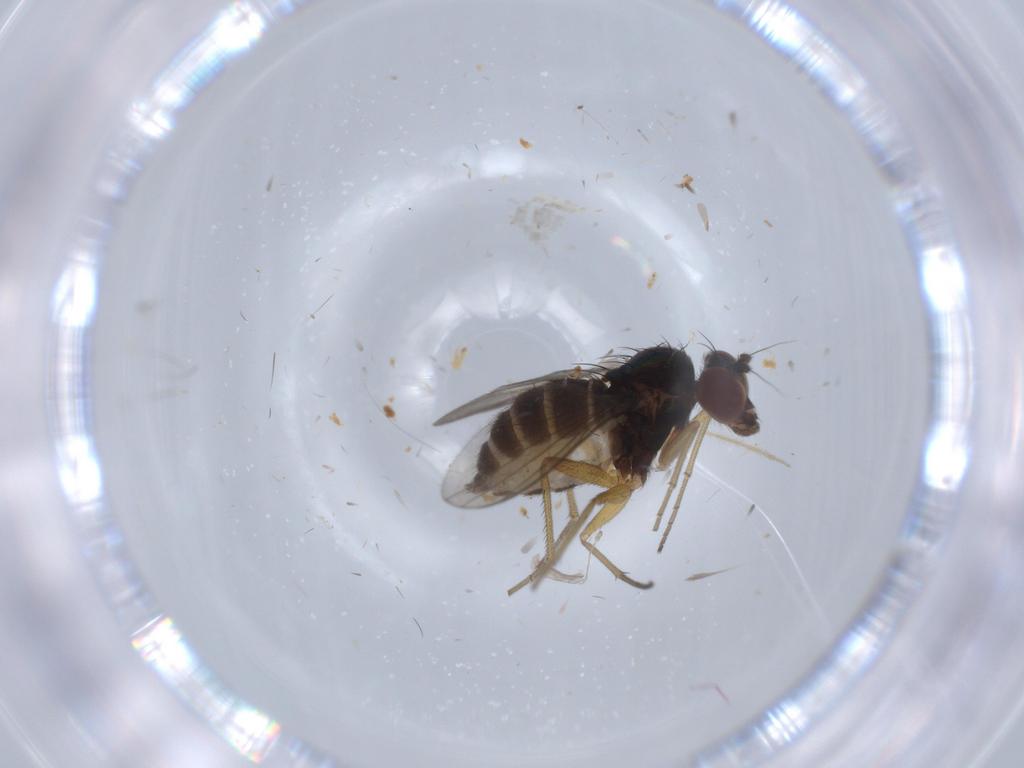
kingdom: Animalia
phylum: Arthropoda
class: Insecta
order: Diptera
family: Dolichopodidae
